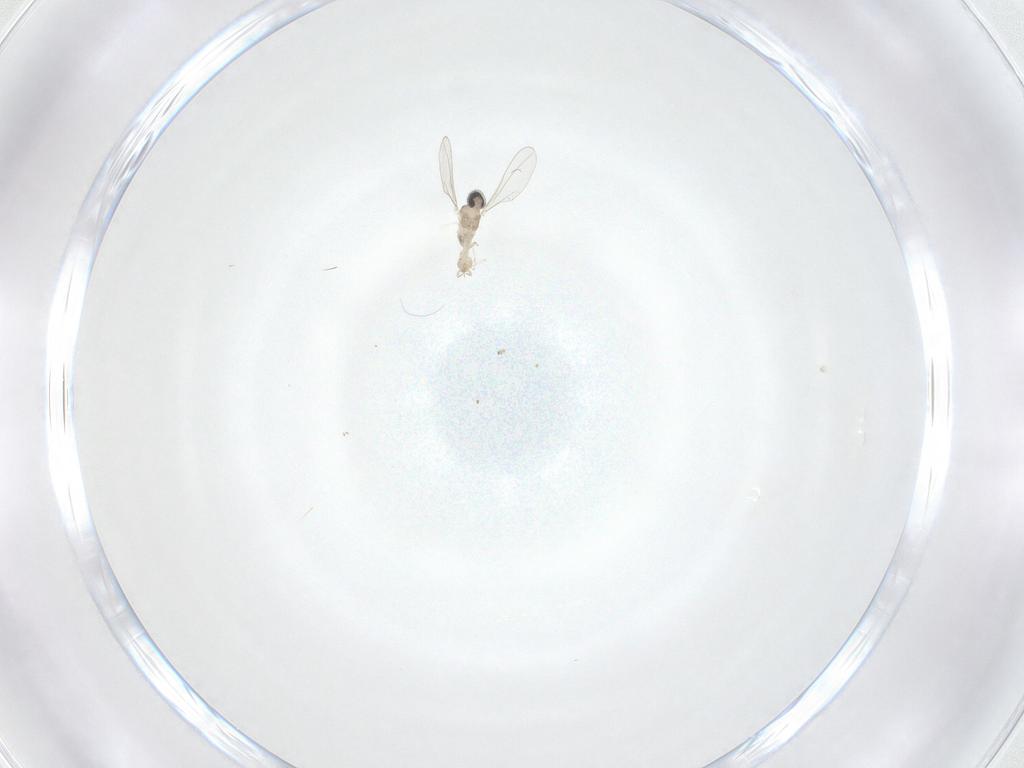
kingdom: Animalia
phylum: Arthropoda
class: Insecta
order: Diptera
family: Cecidomyiidae
